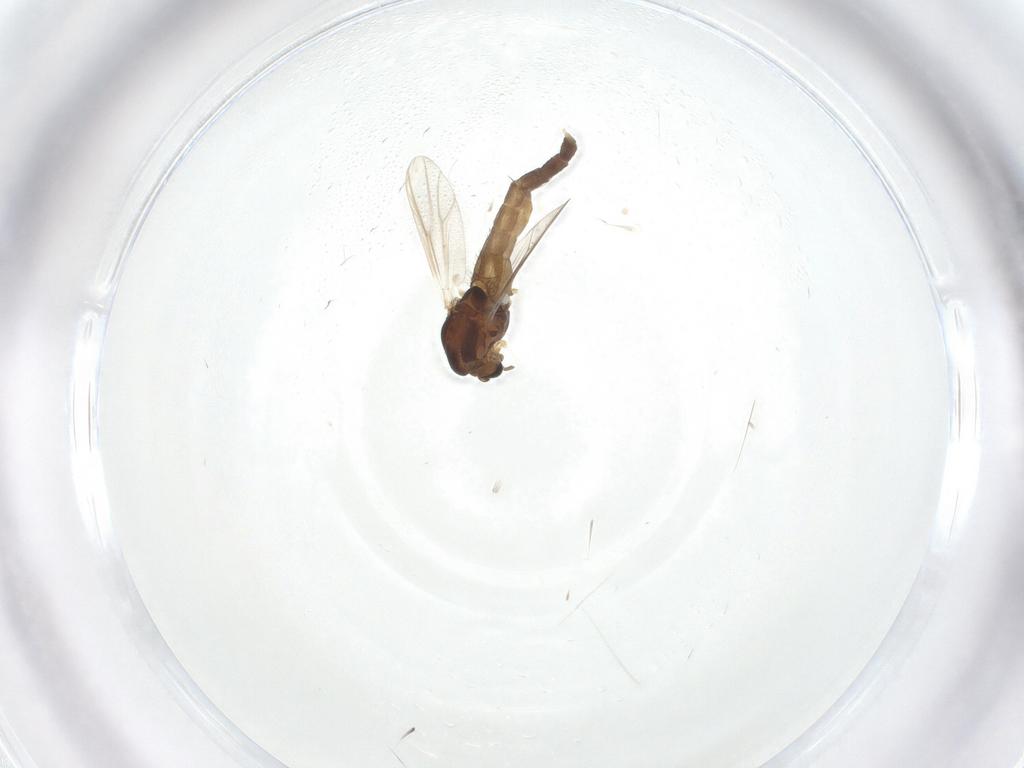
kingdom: Animalia
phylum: Arthropoda
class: Insecta
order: Diptera
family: Chironomidae
